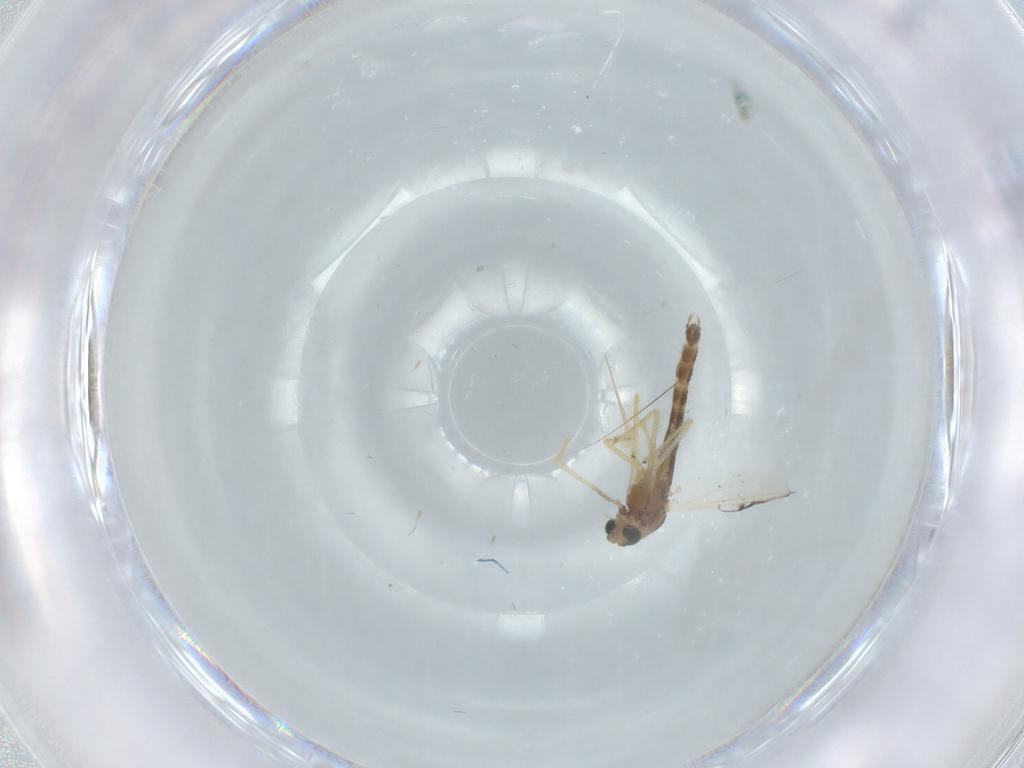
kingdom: Animalia
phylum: Arthropoda
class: Insecta
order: Diptera
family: Chironomidae
